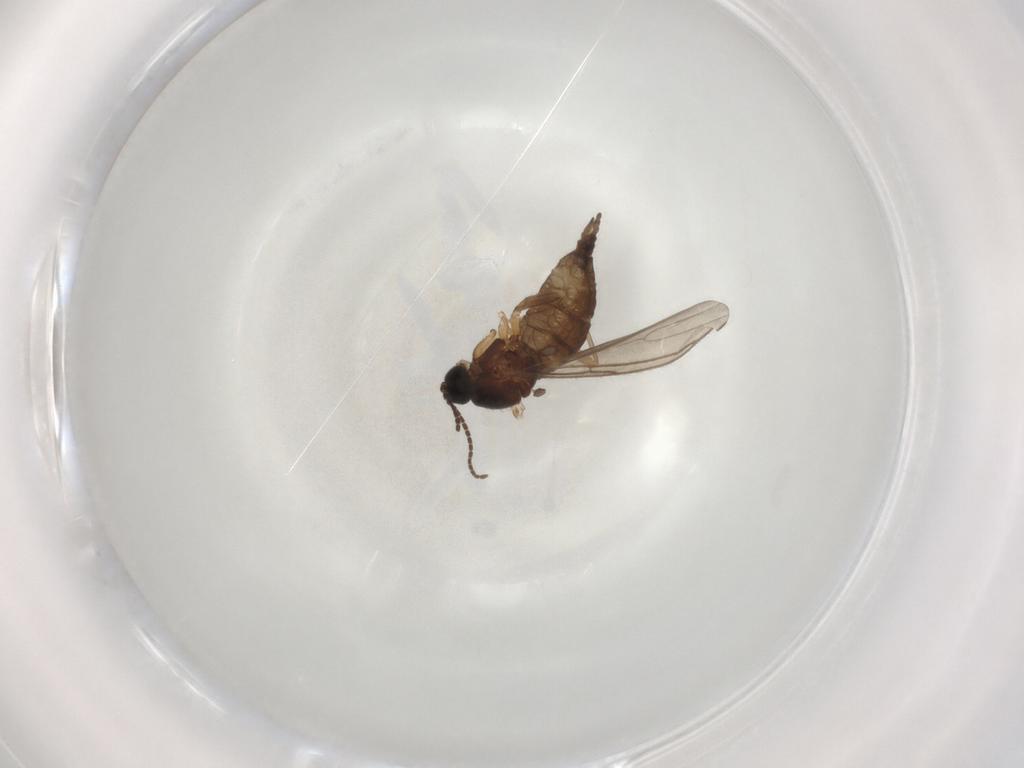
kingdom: Animalia
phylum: Arthropoda
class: Insecta
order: Diptera
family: Sciaridae
